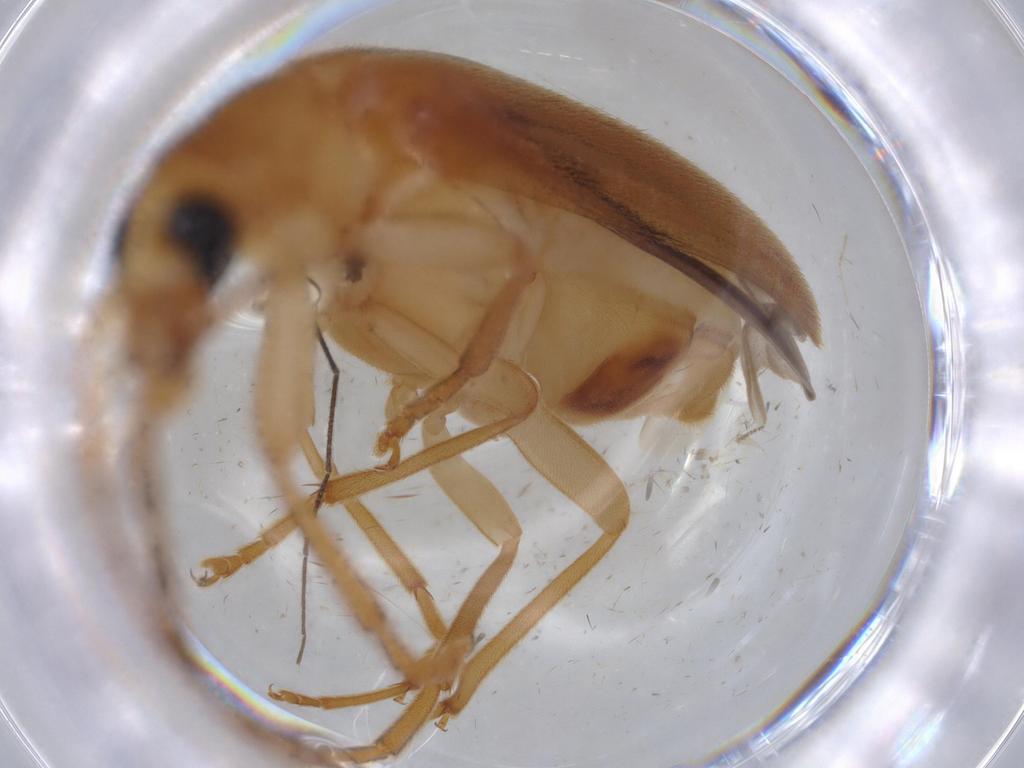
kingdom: Animalia
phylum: Arthropoda
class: Insecta
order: Coleoptera
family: Oedemeridae
